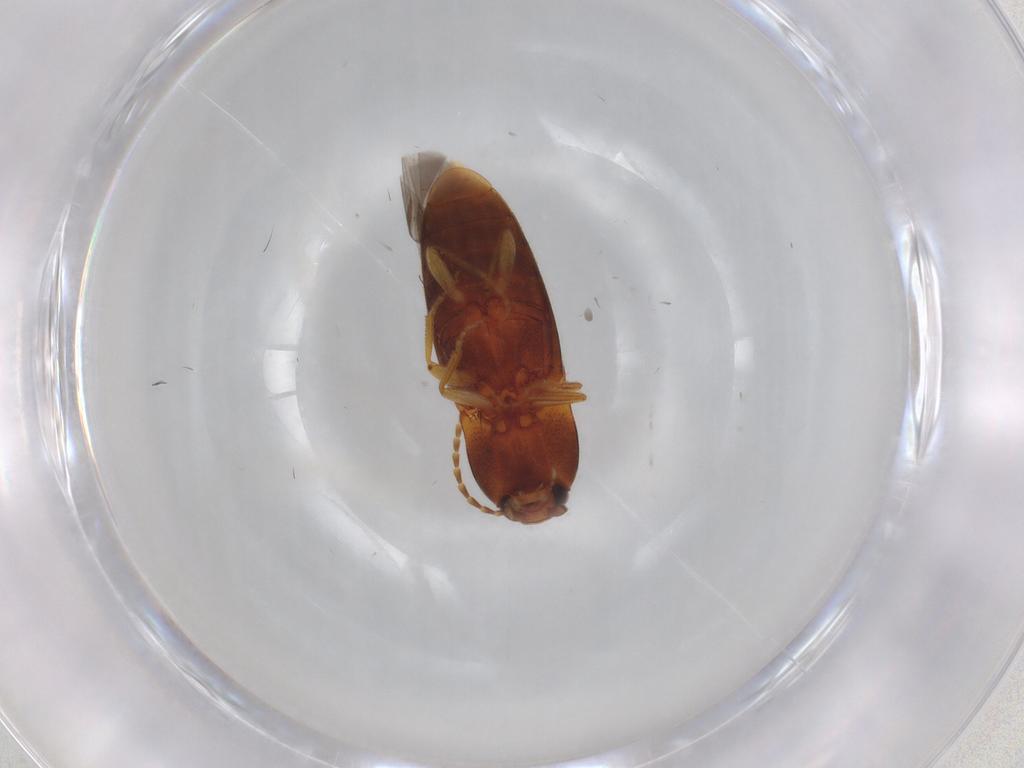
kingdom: Animalia
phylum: Arthropoda
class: Insecta
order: Coleoptera
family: Elateridae
